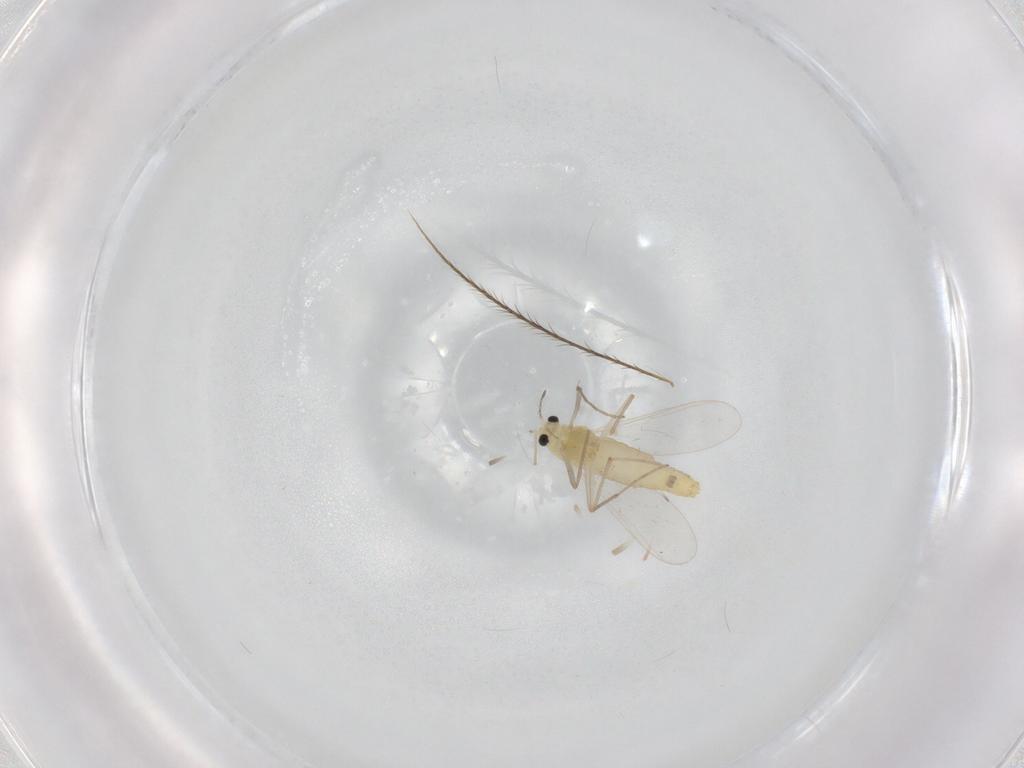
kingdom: Animalia
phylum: Arthropoda
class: Insecta
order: Diptera
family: Chironomidae
